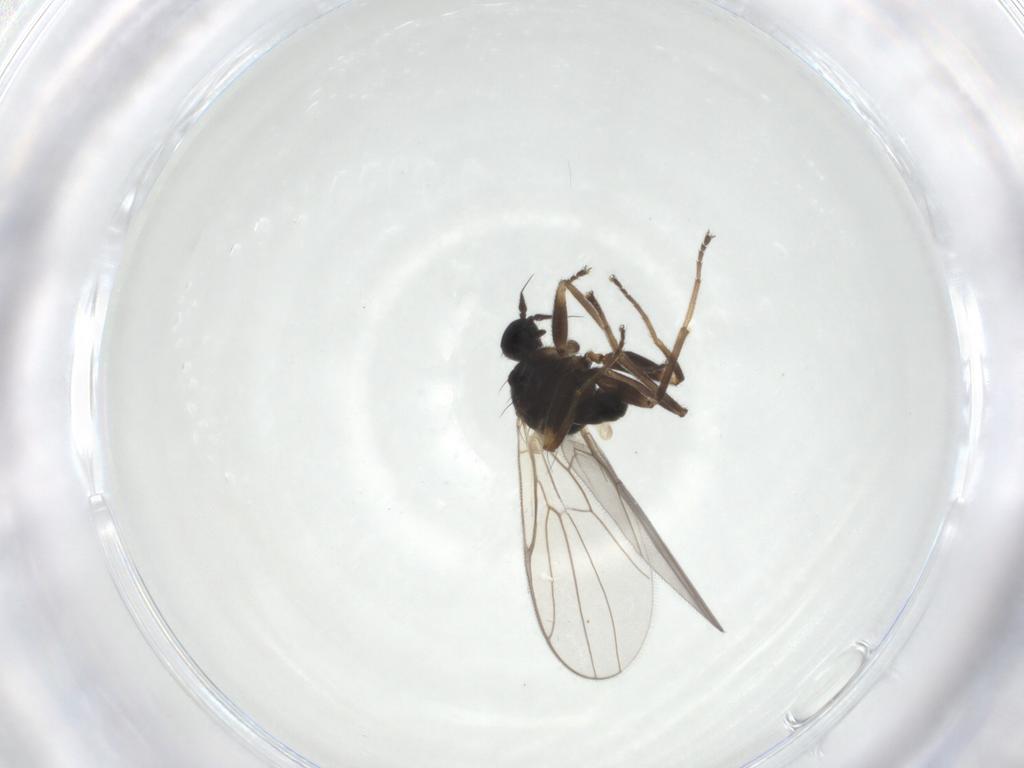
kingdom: Animalia
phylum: Arthropoda
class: Insecta
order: Diptera
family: Hybotidae
